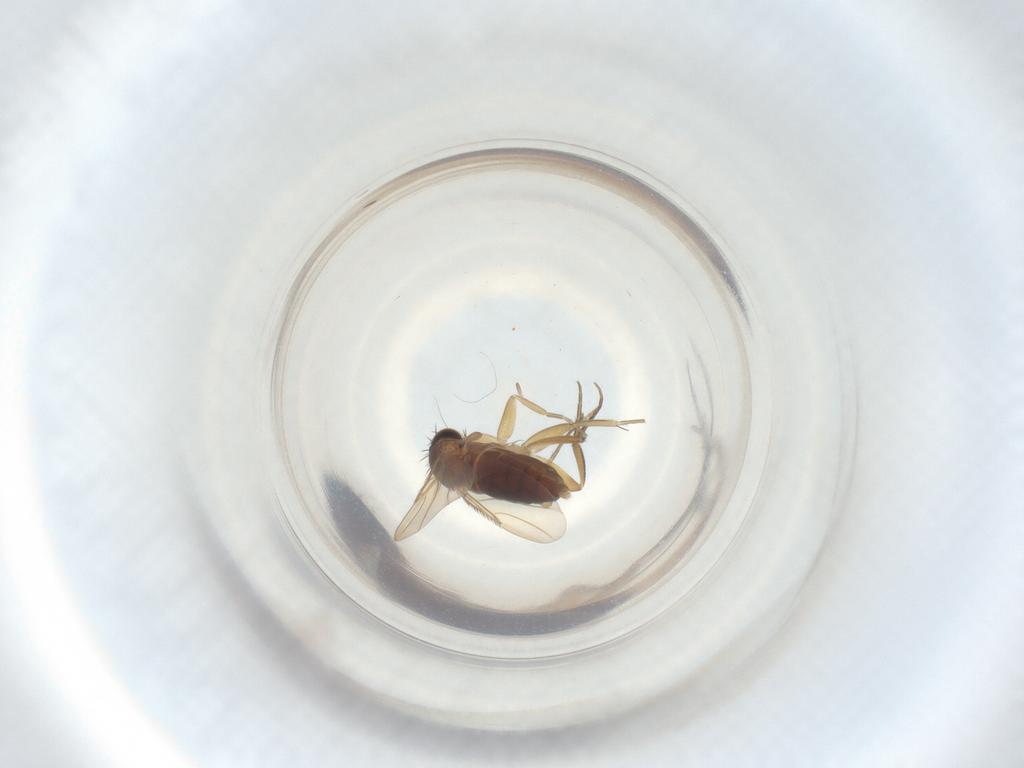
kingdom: Animalia
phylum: Arthropoda
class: Insecta
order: Diptera
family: Phoridae
